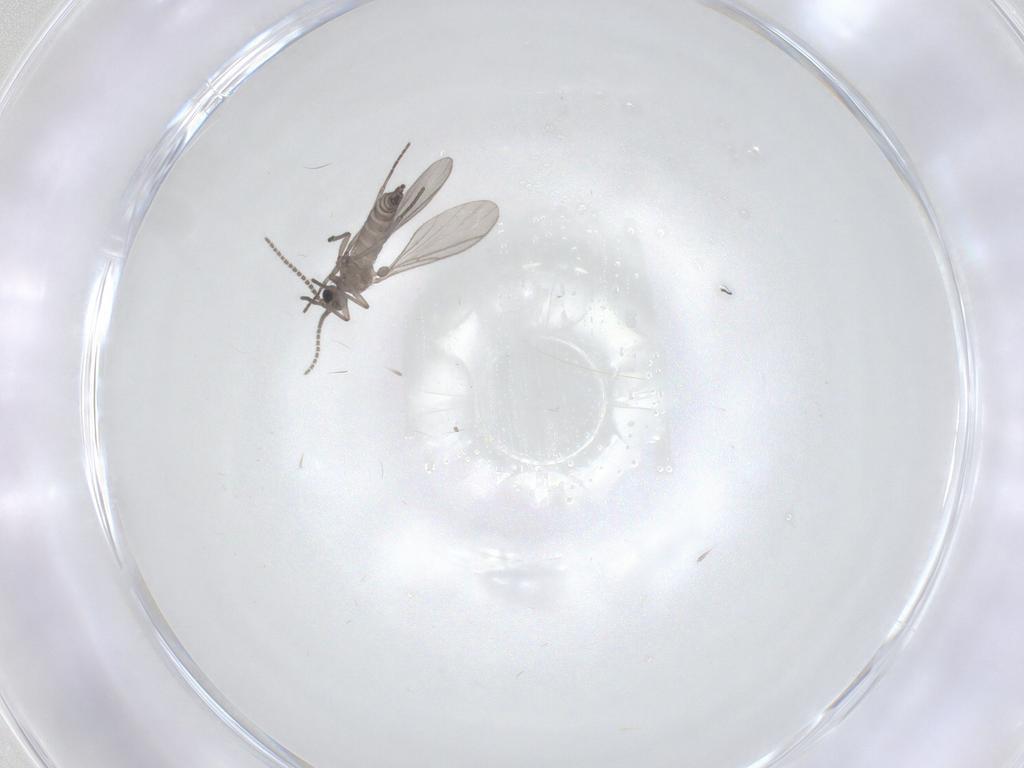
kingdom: Animalia
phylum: Arthropoda
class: Insecta
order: Diptera
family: Sciaridae
